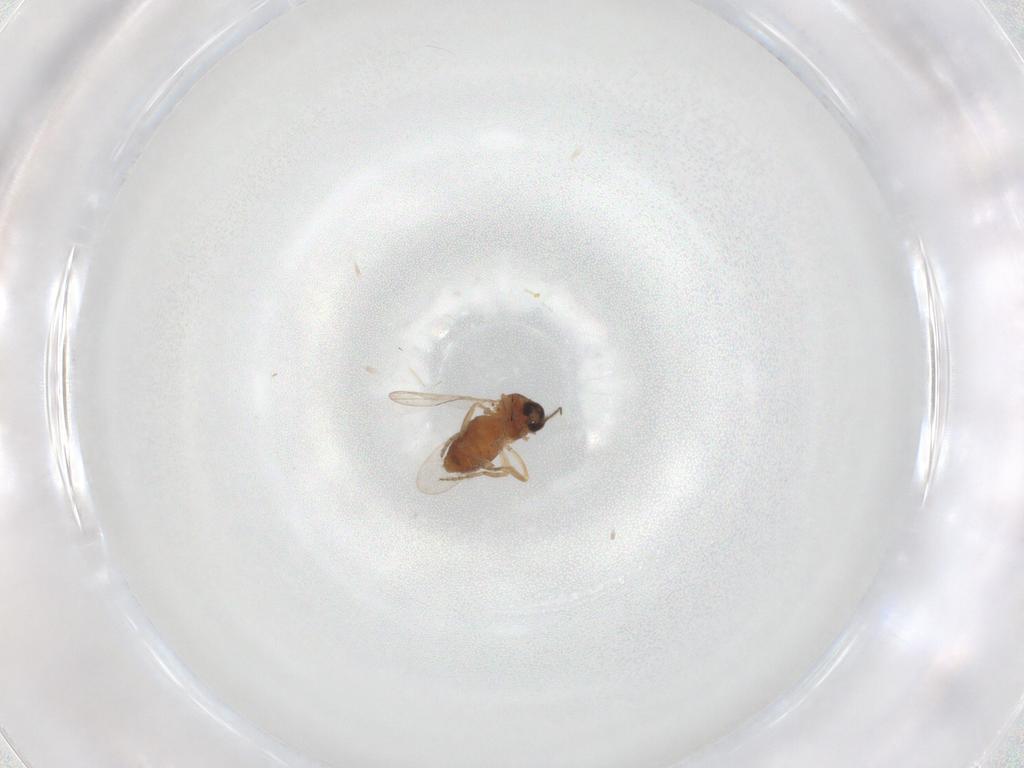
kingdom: Animalia
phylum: Arthropoda
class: Insecta
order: Diptera
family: Ceratopogonidae
